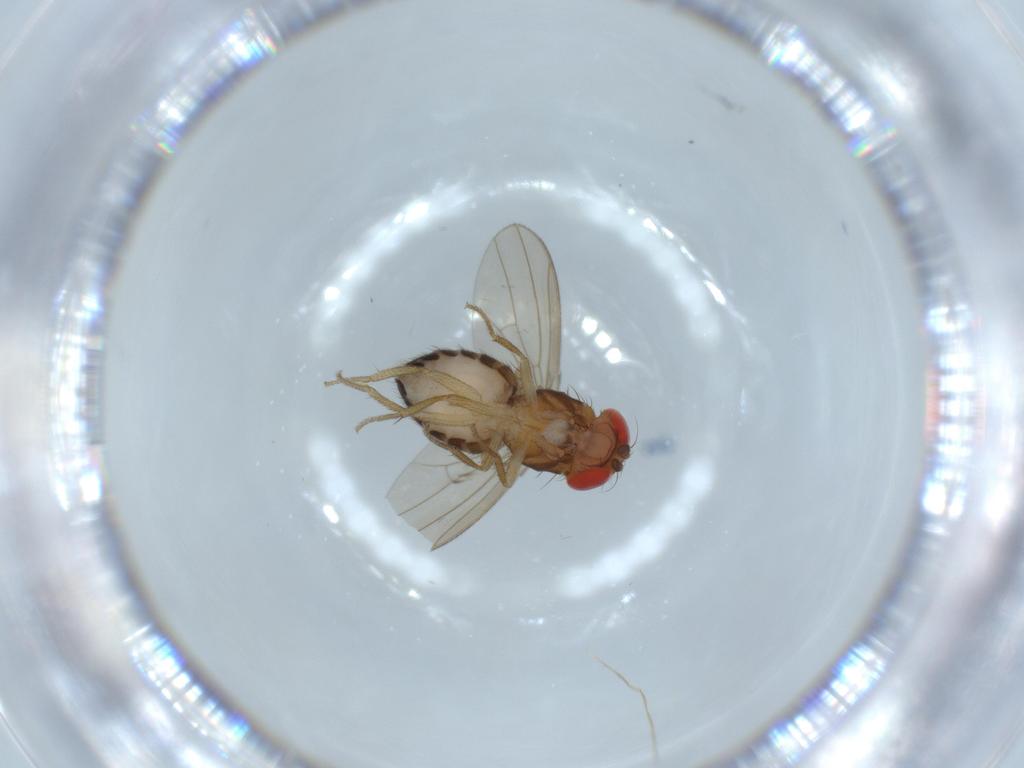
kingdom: Animalia
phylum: Arthropoda
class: Insecta
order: Diptera
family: Drosophilidae
